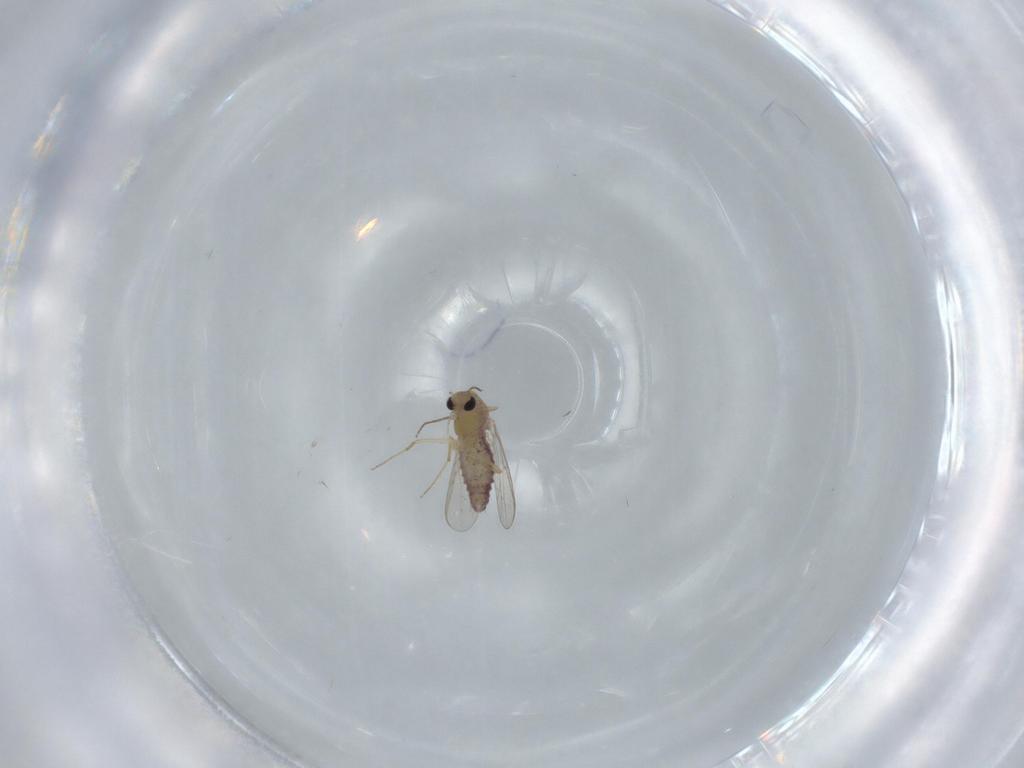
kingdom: Animalia
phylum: Arthropoda
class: Insecta
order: Diptera
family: Chironomidae
